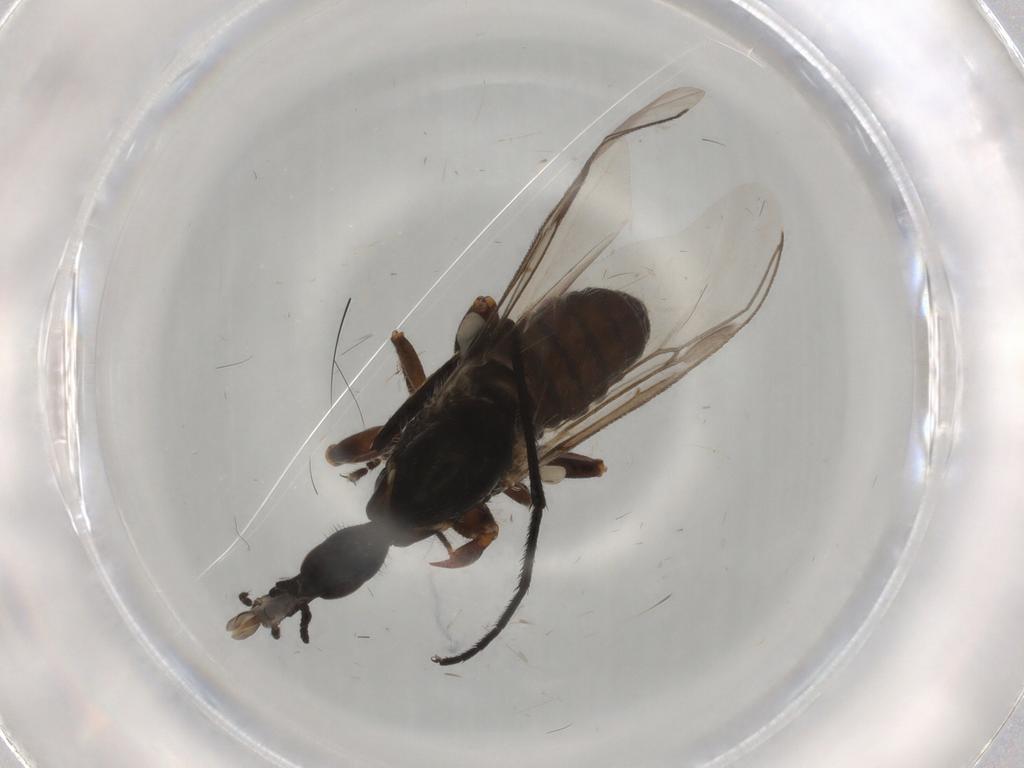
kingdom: Animalia
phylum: Arthropoda
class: Insecta
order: Diptera
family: Bibionidae
